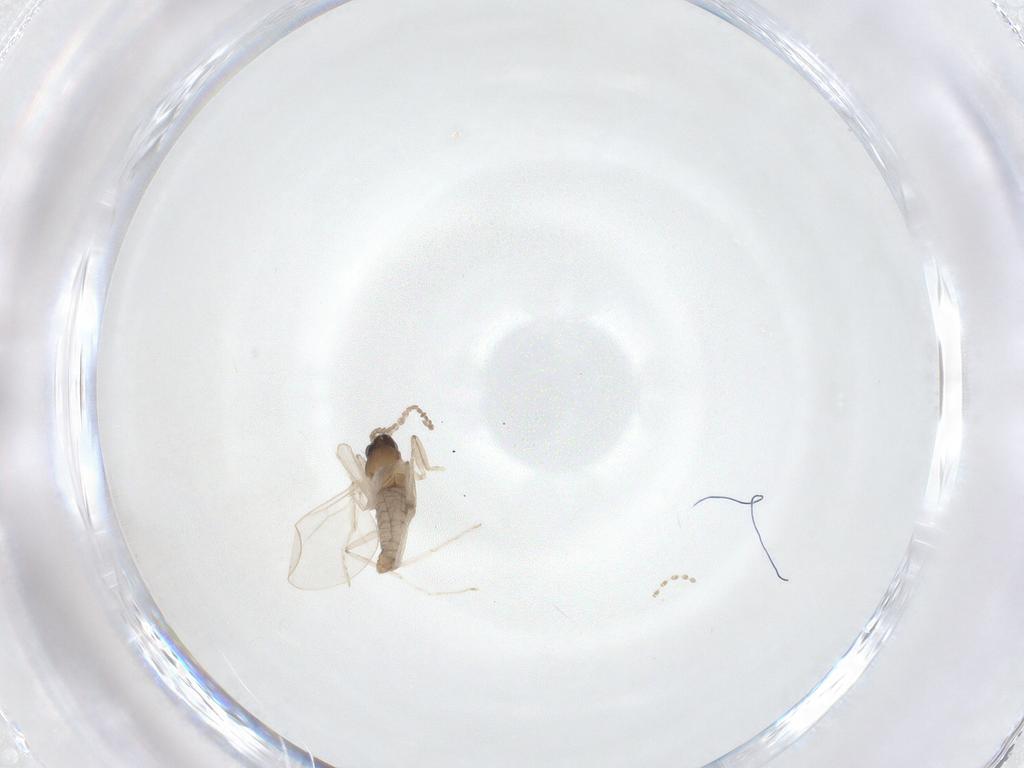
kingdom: Animalia
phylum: Arthropoda
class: Insecta
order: Diptera
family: Cecidomyiidae
